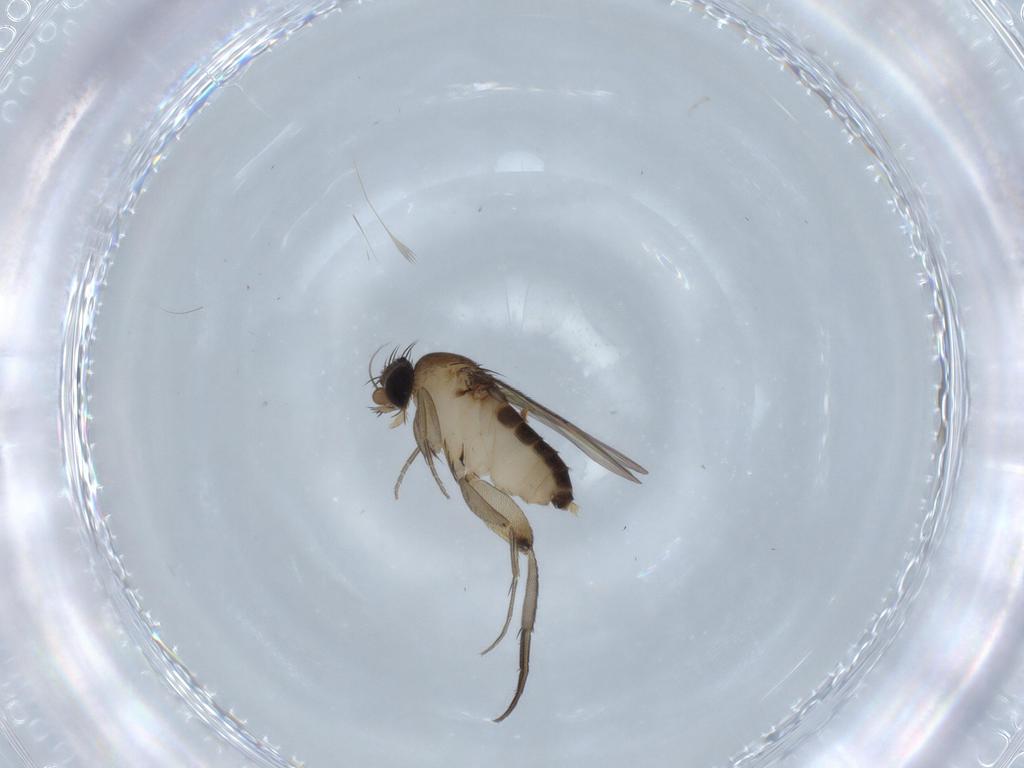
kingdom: Animalia
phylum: Arthropoda
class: Insecta
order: Diptera
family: Phoridae
